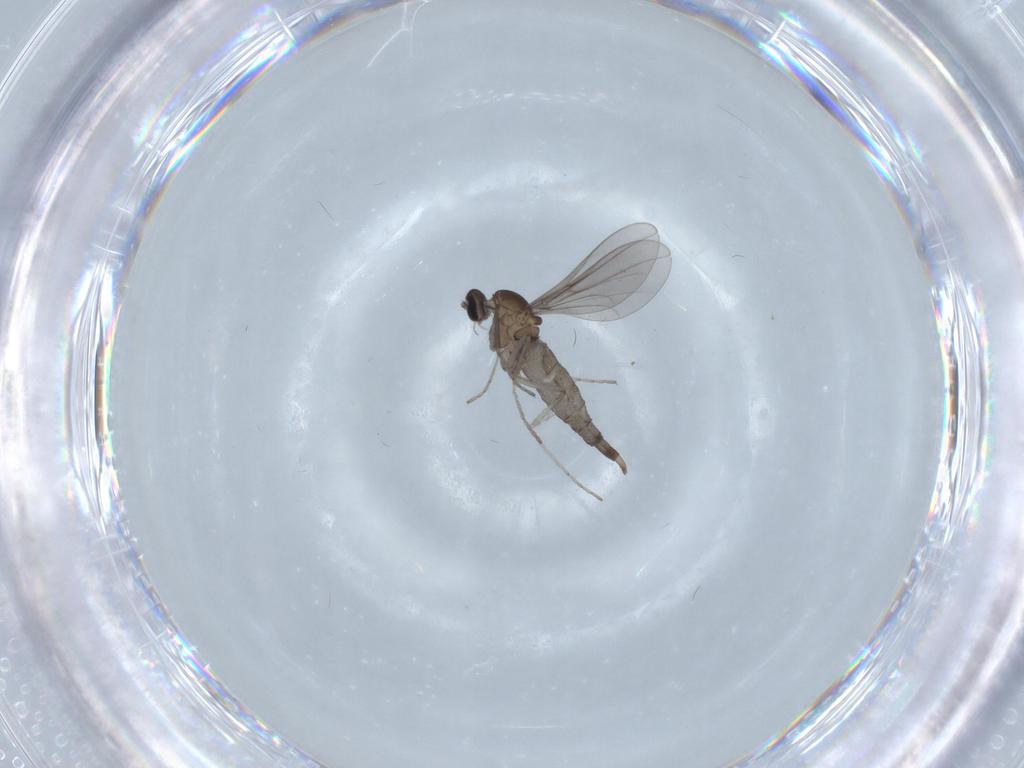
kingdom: Animalia
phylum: Arthropoda
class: Insecta
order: Diptera
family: Cecidomyiidae
